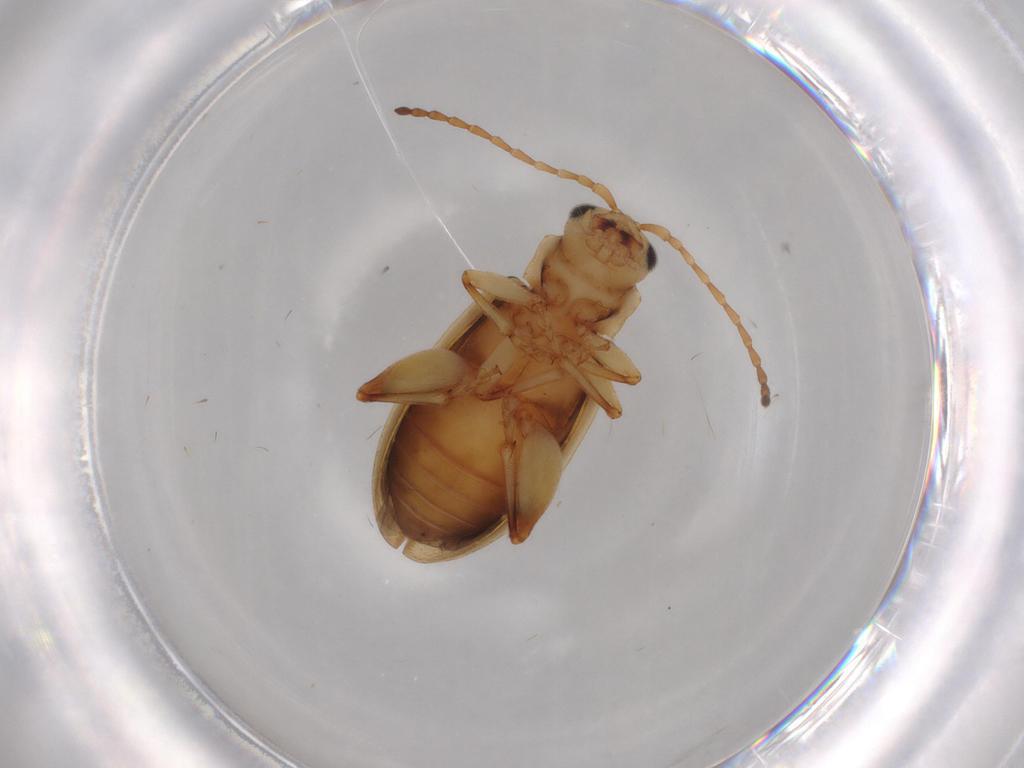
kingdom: Animalia
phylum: Arthropoda
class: Insecta
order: Coleoptera
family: Chrysomelidae
